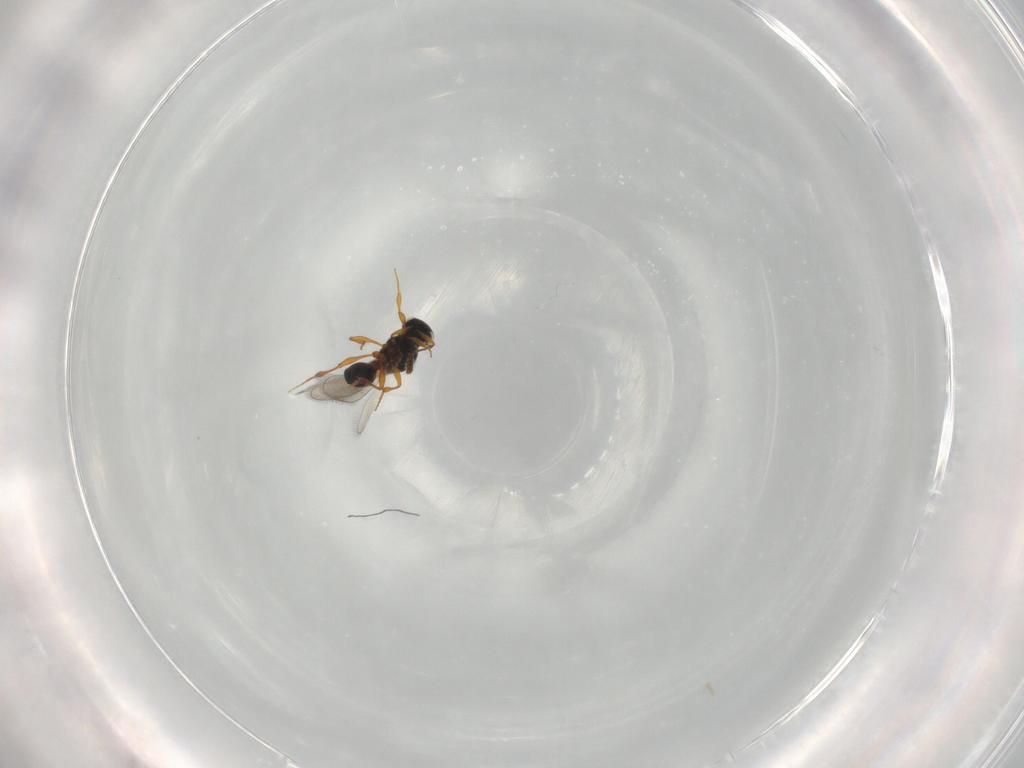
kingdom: Animalia
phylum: Arthropoda
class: Insecta
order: Hymenoptera
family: Platygastridae
